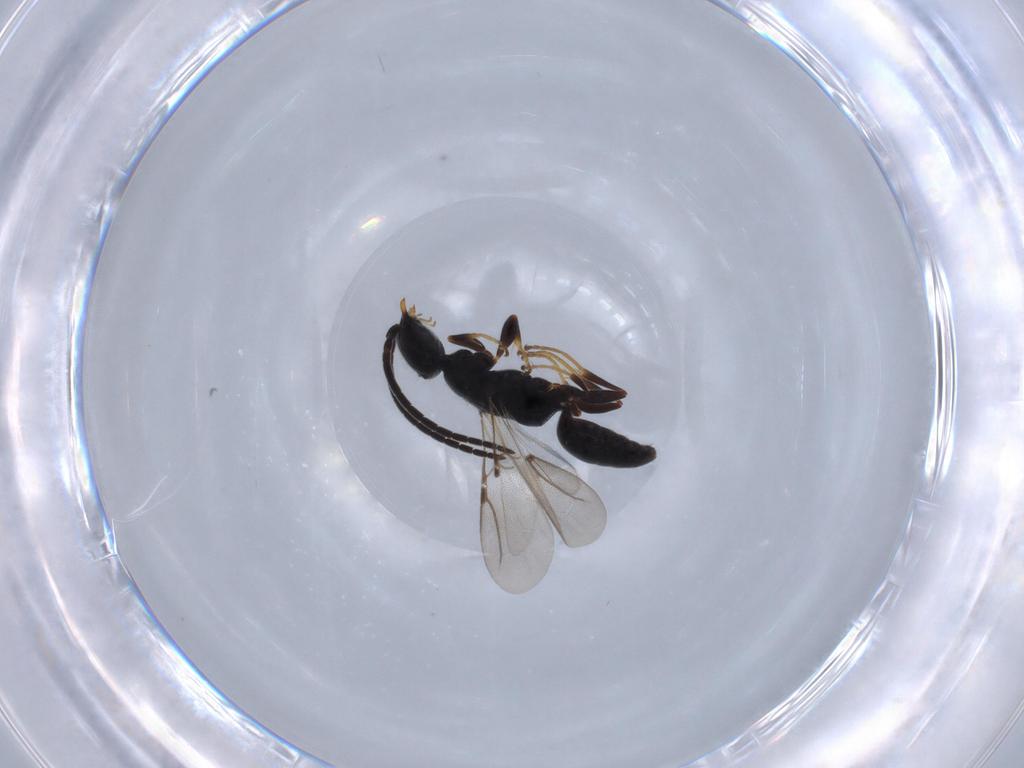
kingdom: Animalia
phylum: Arthropoda
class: Insecta
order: Hymenoptera
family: Bethylidae
